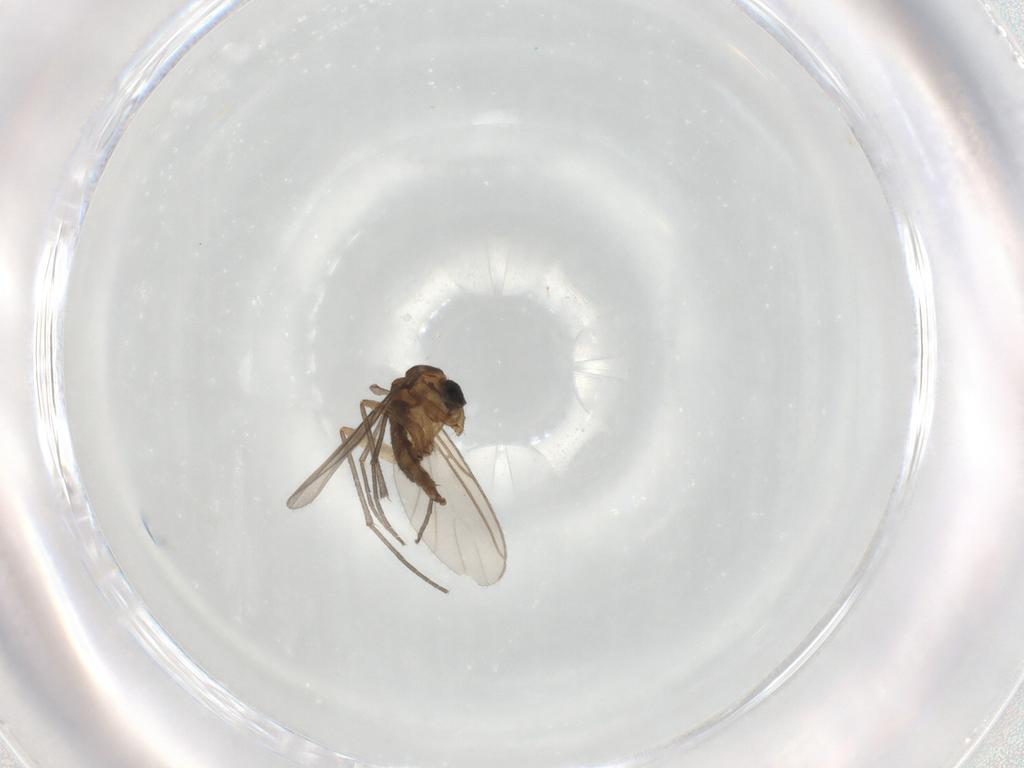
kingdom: Animalia
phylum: Arthropoda
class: Insecta
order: Diptera
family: Sciaridae
